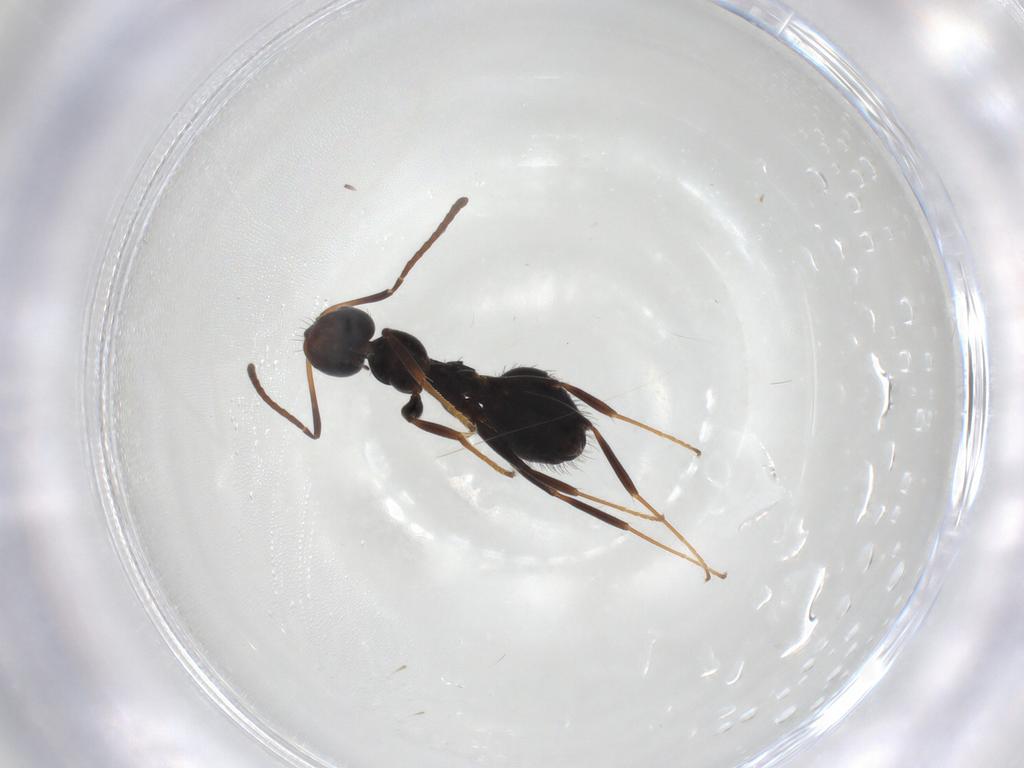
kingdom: Animalia
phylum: Arthropoda
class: Insecta
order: Hymenoptera
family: Formicidae
